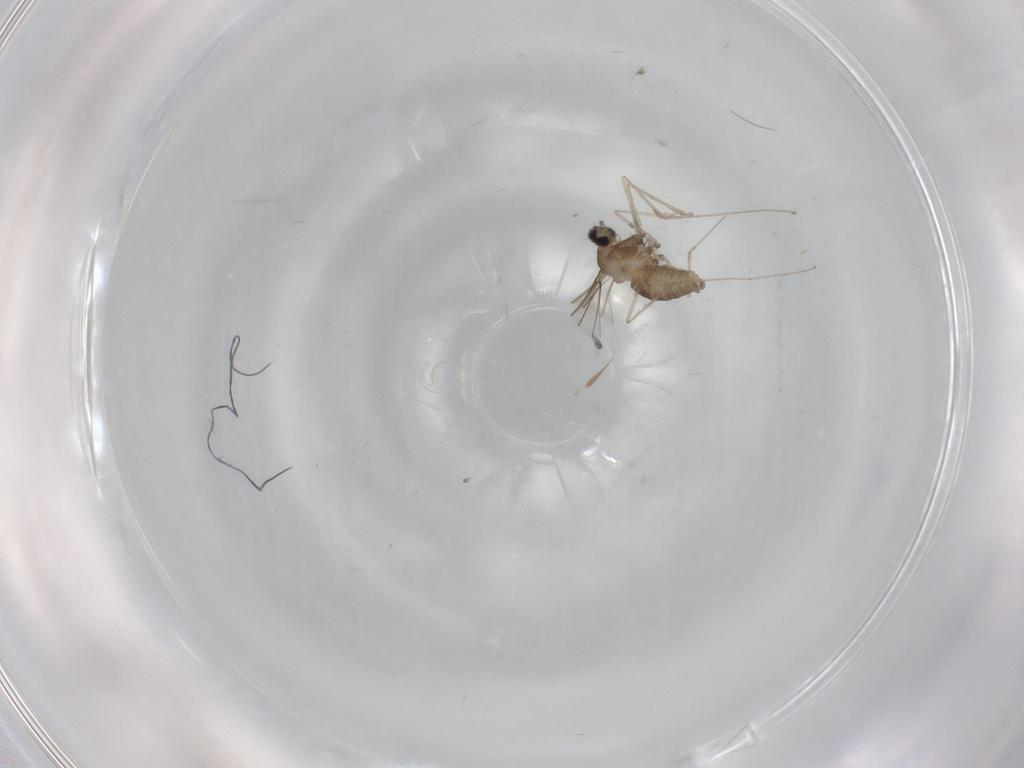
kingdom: Animalia
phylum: Arthropoda
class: Insecta
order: Diptera
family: Cecidomyiidae
